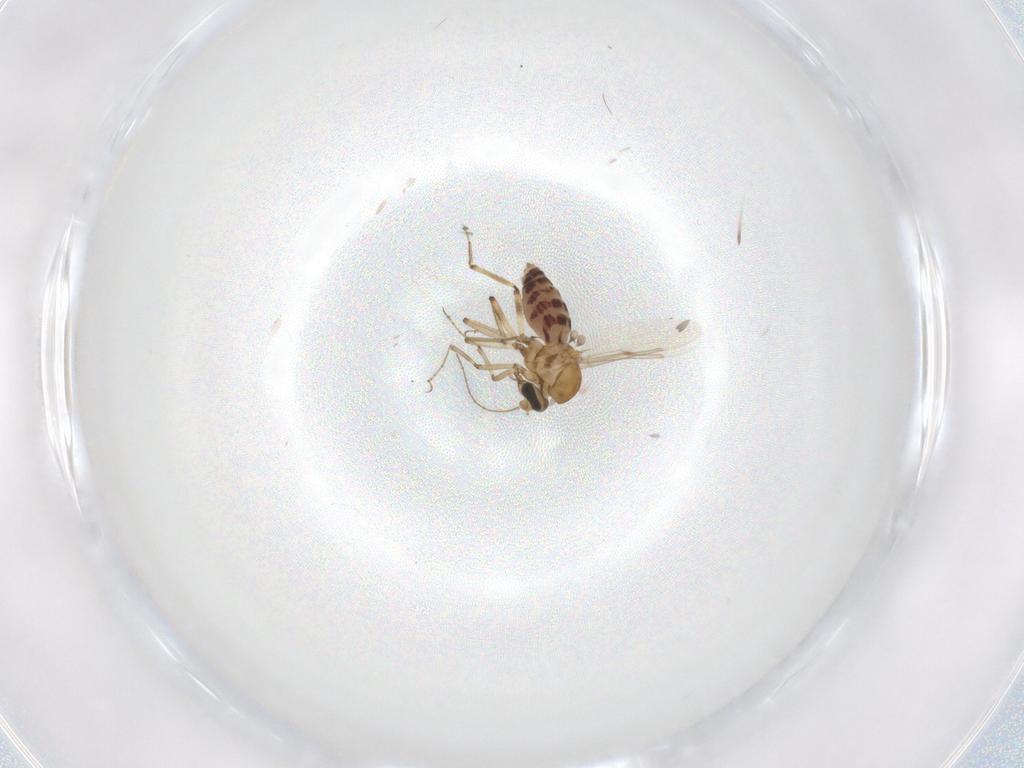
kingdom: Animalia
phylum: Arthropoda
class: Insecta
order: Diptera
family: Ceratopogonidae
